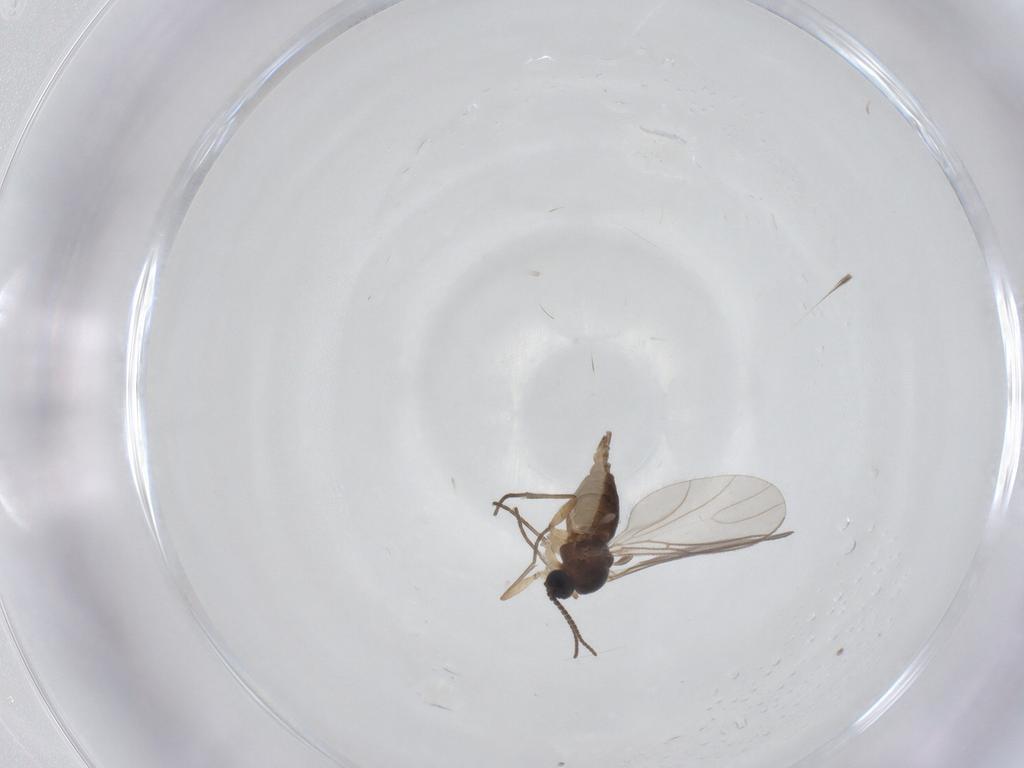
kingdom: Animalia
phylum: Arthropoda
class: Insecta
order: Diptera
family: Sciaridae
